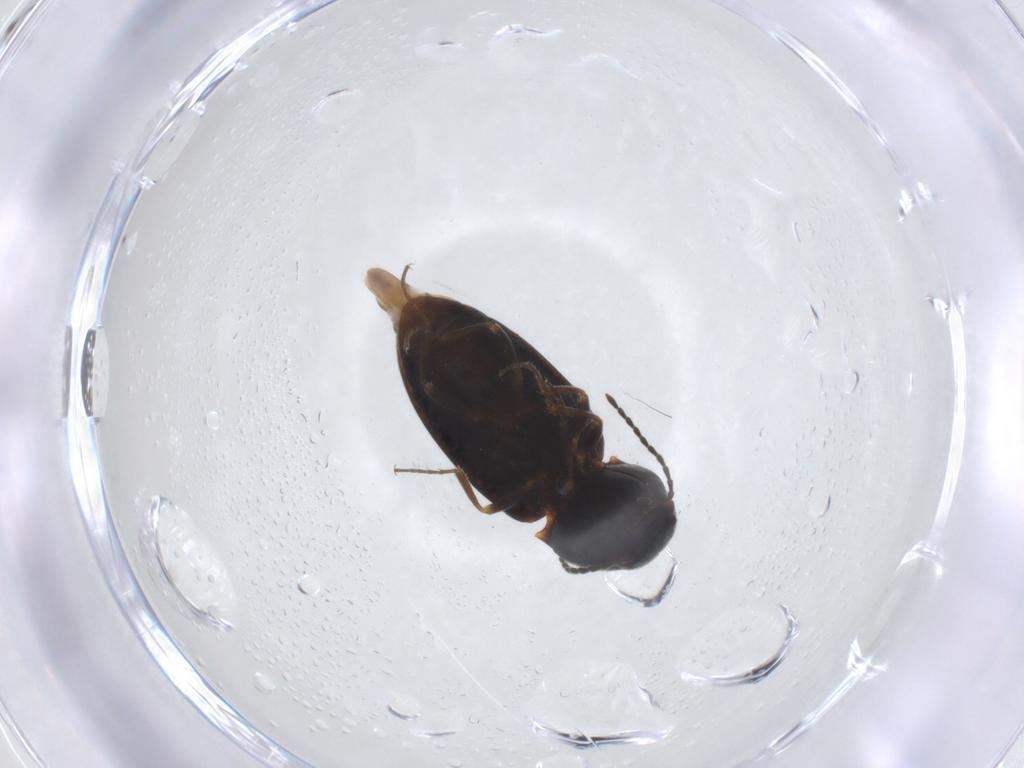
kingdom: Animalia
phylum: Arthropoda
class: Insecta
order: Coleoptera
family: Elateridae
